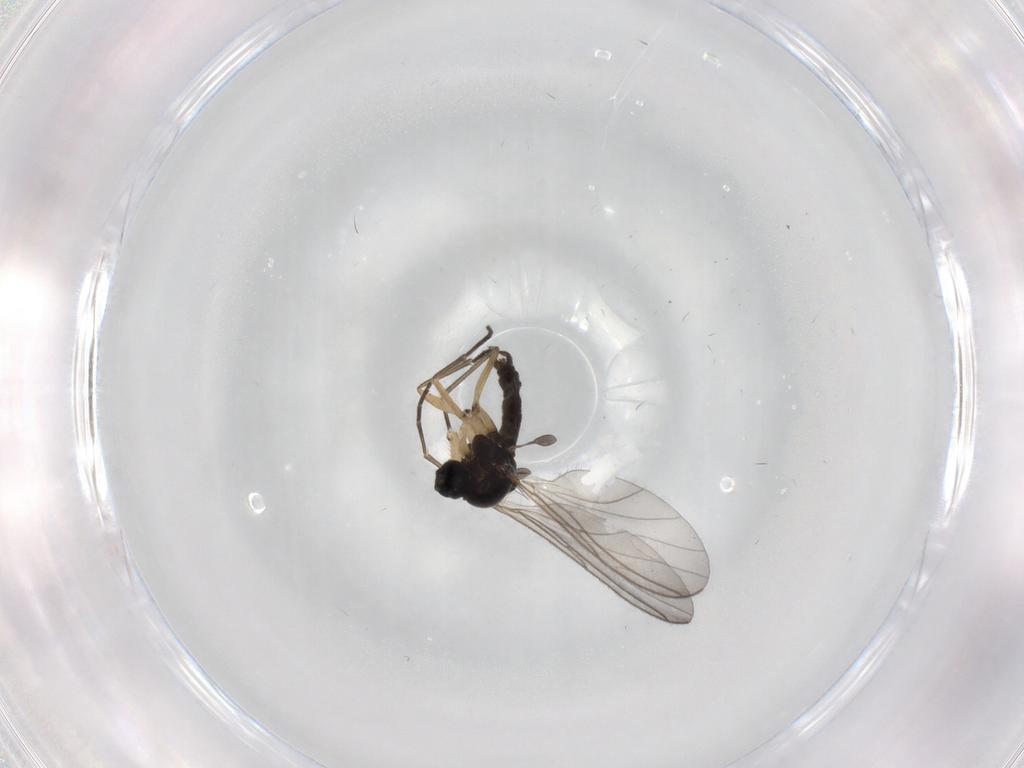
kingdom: Animalia
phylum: Arthropoda
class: Insecta
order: Diptera
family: Sciaridae
